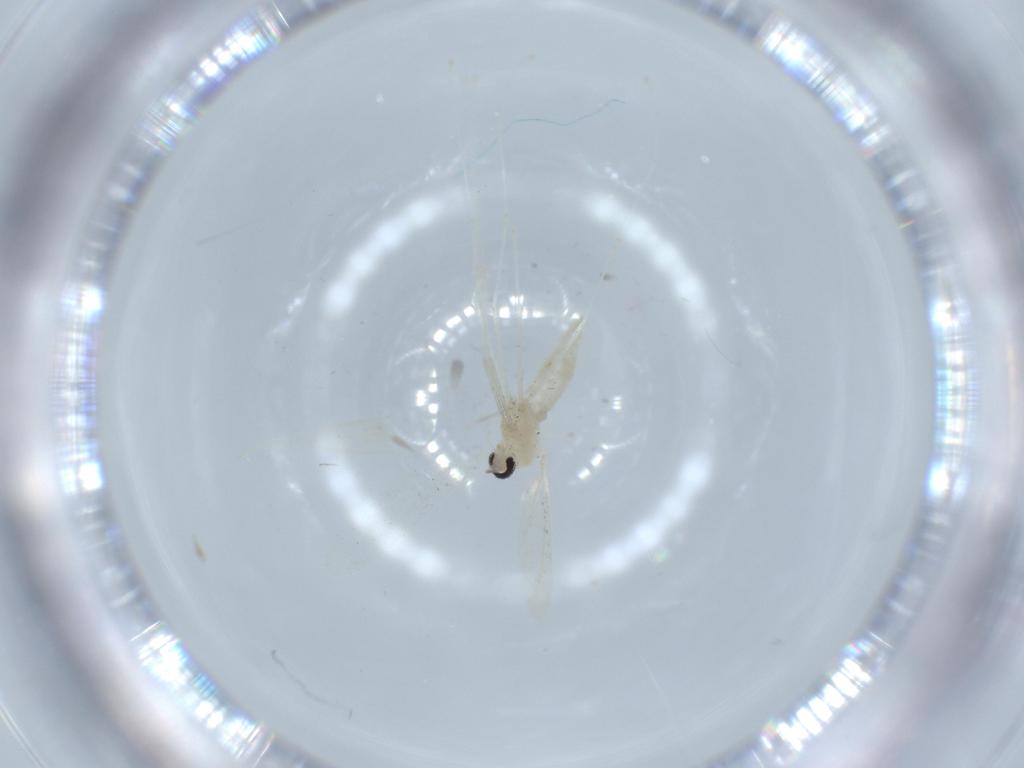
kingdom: Animalia
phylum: Arthropoda
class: Insecta
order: Diptera
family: Cecidomyiidae
